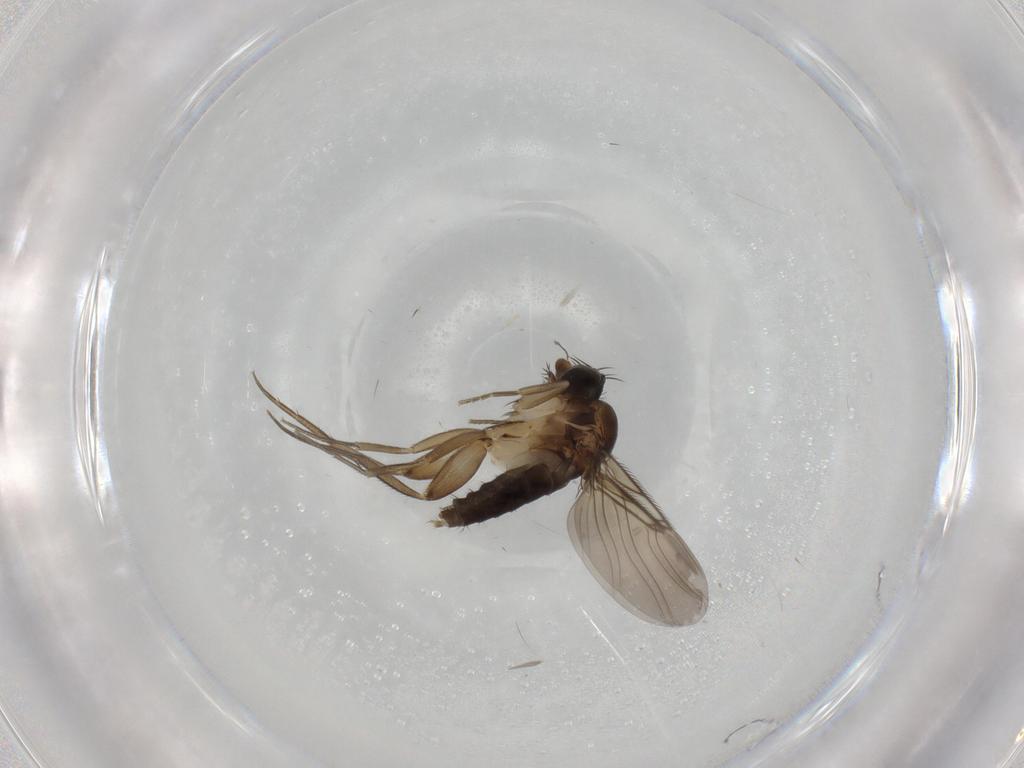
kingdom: Animalia
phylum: Arthropoda
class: Insecta
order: Diptera
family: Phoridae
